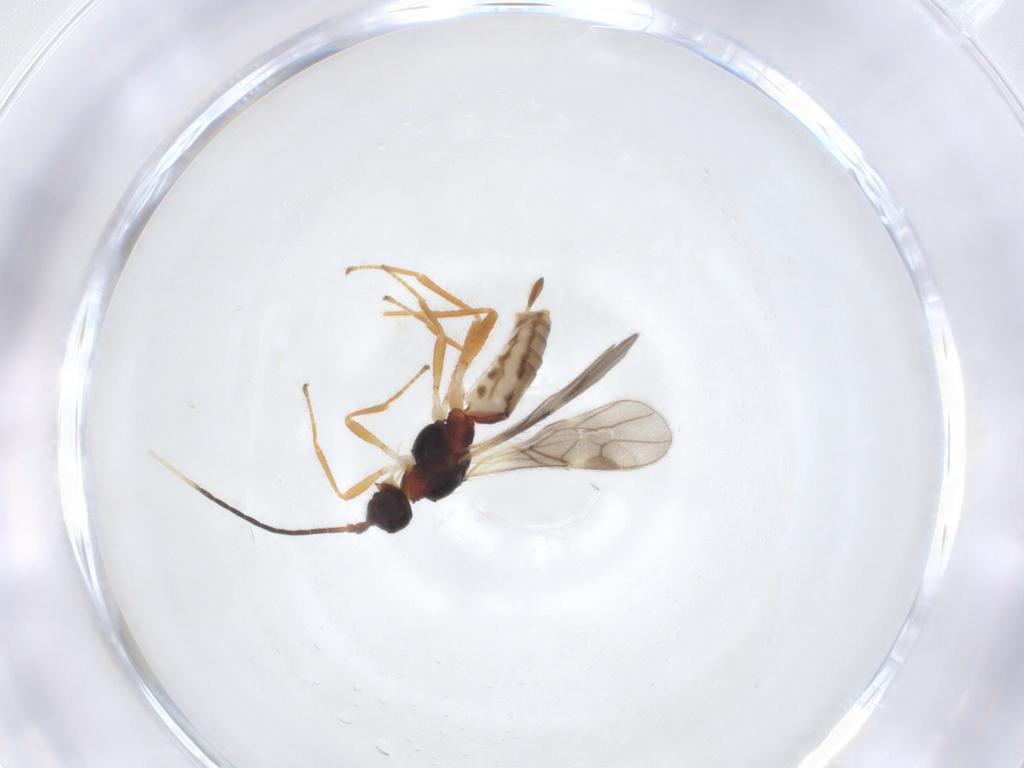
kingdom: Animalia
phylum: Arthropoda
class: Insecta
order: Hymenoptera
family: Braconidae
